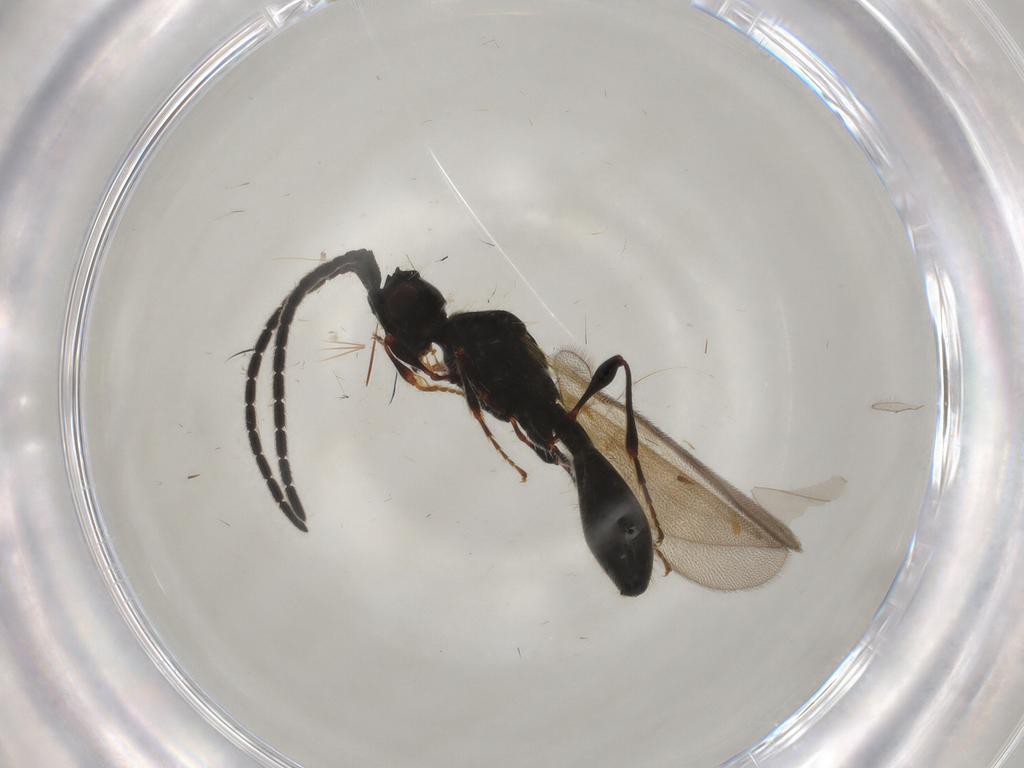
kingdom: Animalia
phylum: Arthropoda
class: Insecta
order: Hymenoptera
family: Diapriidae
